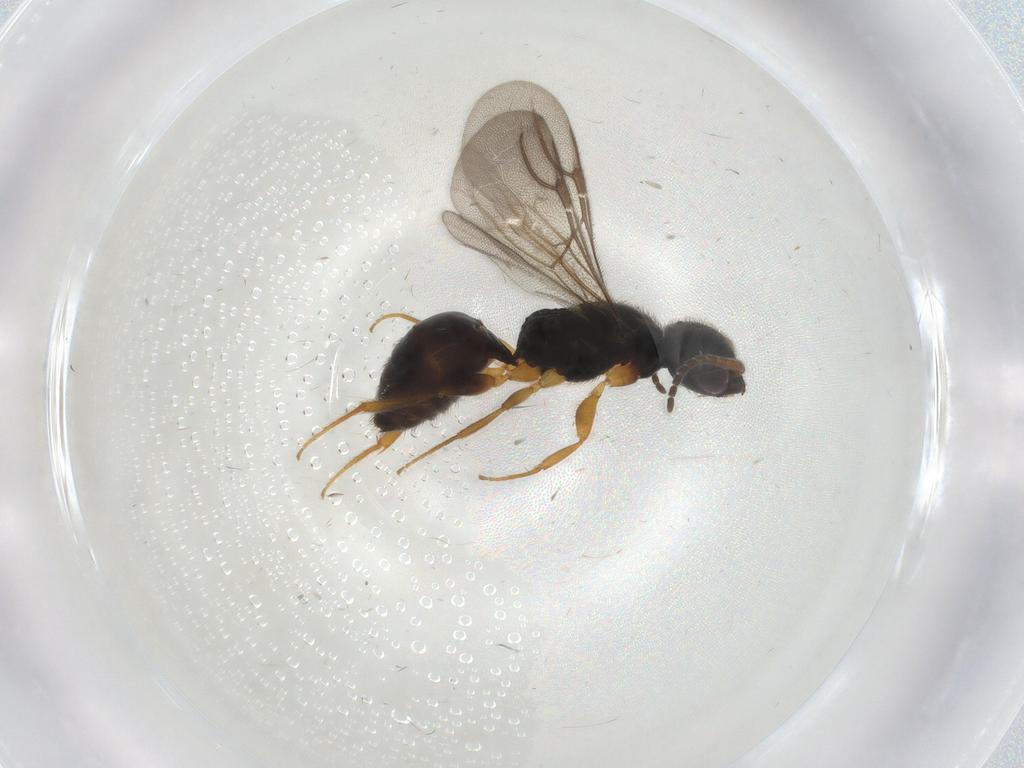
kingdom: Animalia
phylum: Arthropoda
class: Insecta
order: Hymenoptera
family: Bethylidae
